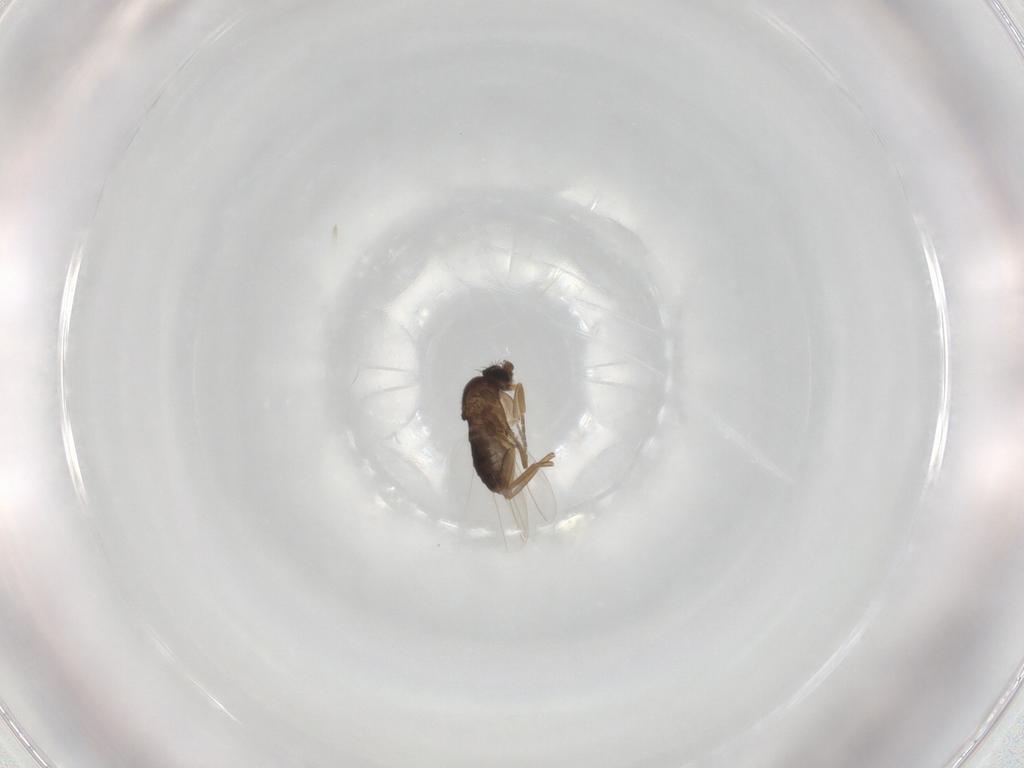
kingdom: Animalia
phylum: Arthropoda
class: Insecta
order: Diptera
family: Phoridae
